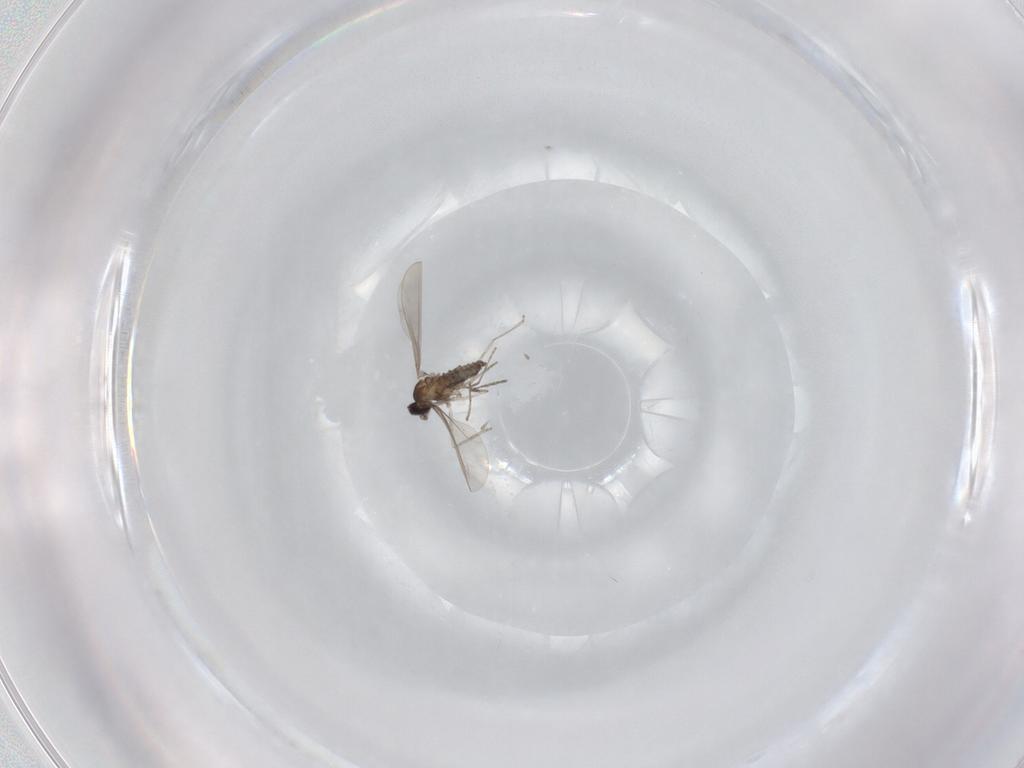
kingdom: Animalia
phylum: Arthropoda
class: Insecta
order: Diptera
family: Cecidomyiidae
